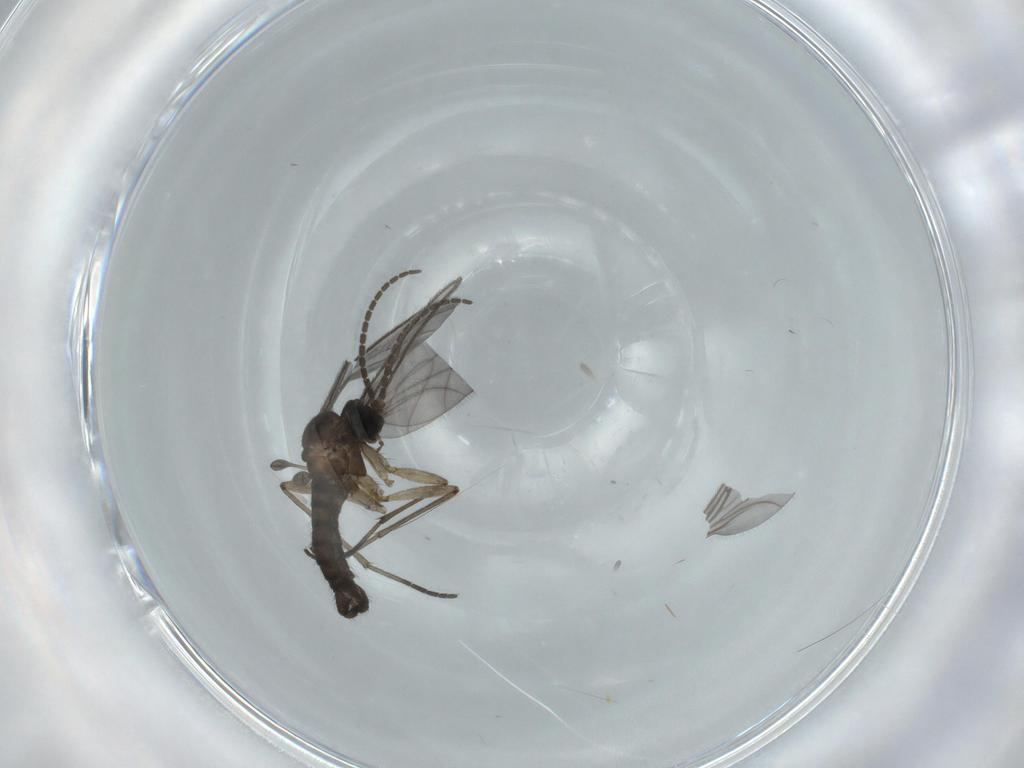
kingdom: Animalia
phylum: Arthropoda
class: Insecta
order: Diptera
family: Sciaridae
